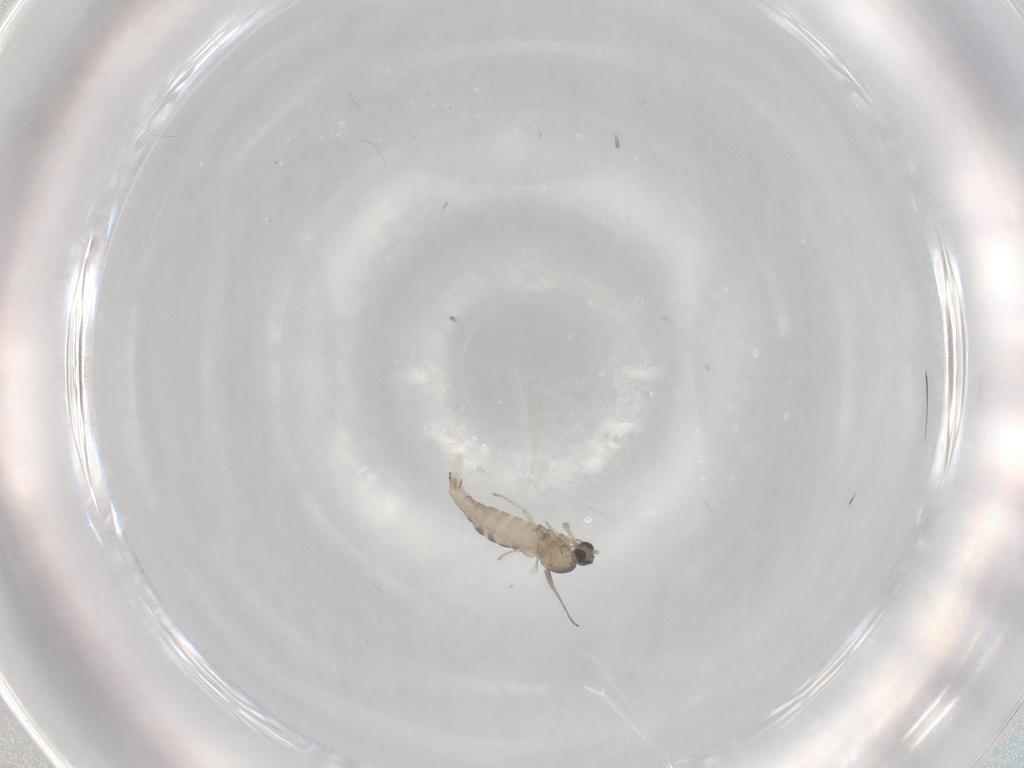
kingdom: Animalia
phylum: Arthropoda
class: Insecta
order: Diptera
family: Cecidomyiidae
